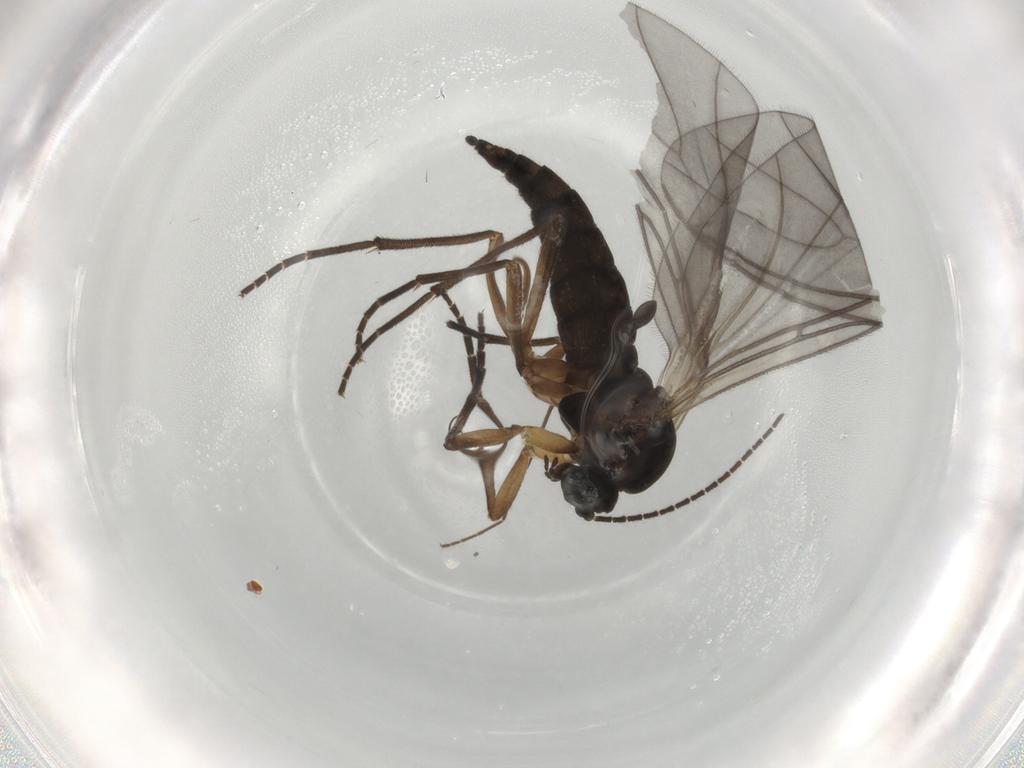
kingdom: Animalia
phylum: Arthropoda
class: Insecta
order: Diptera
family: Sciaridae
